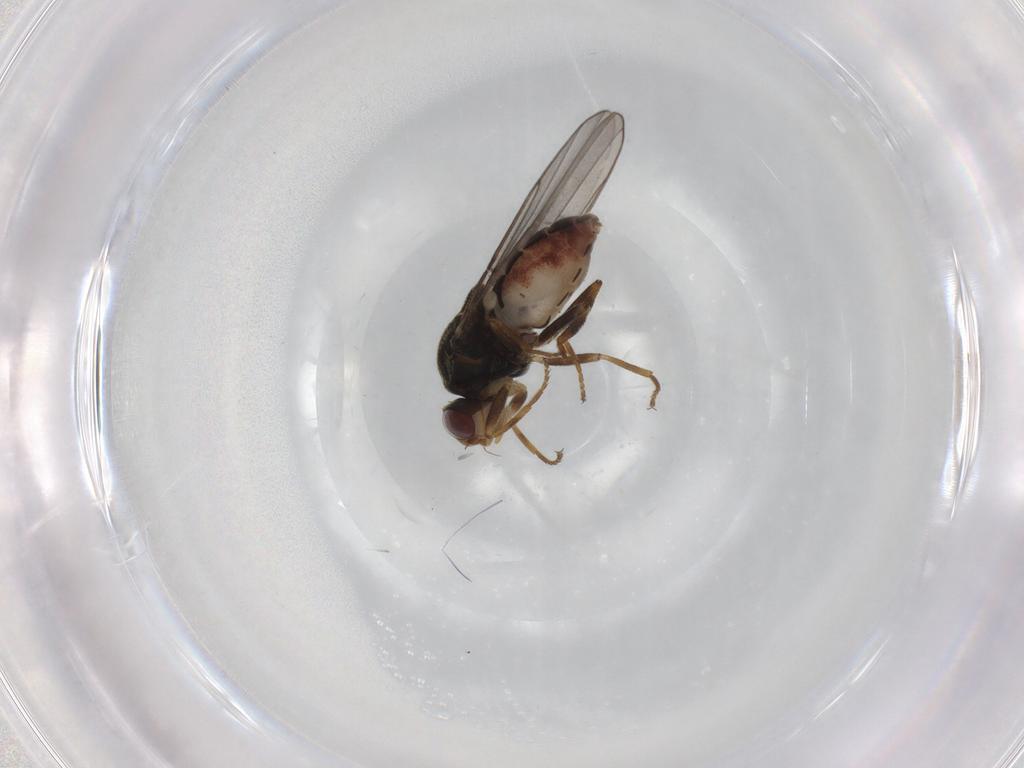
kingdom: Animalia
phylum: Arthropoda
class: Insecta
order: Diptera
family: Chloropidae
